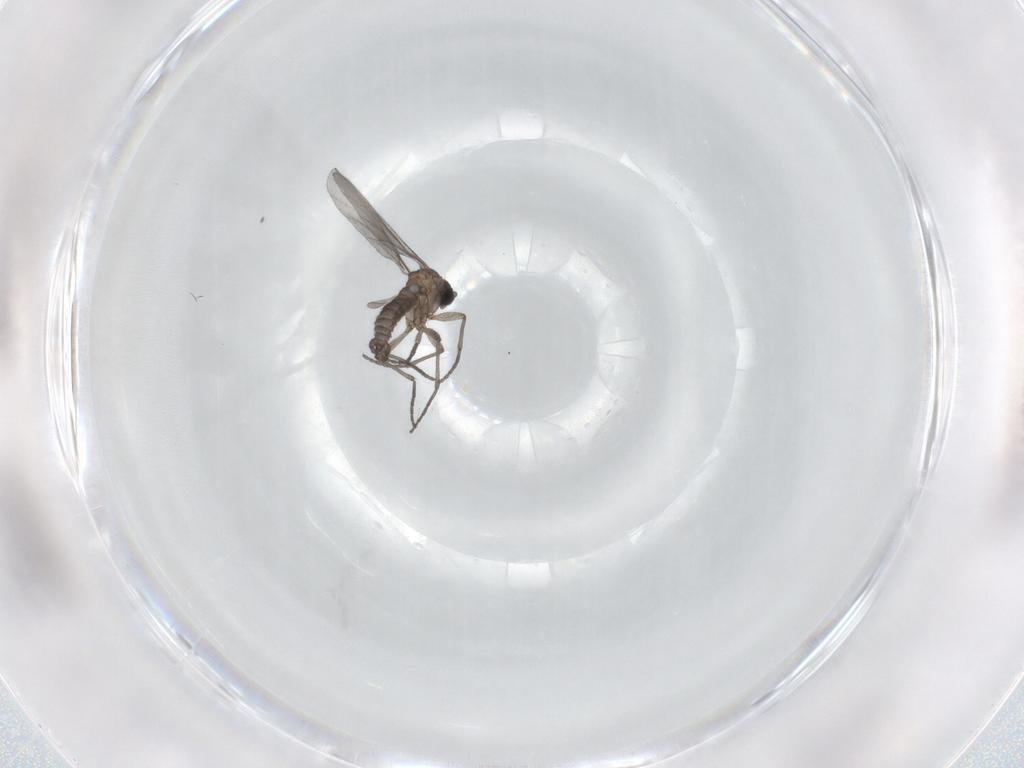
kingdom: Animalia
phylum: Arthropoda
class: Insecta
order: Diptera
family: Sciaridae
